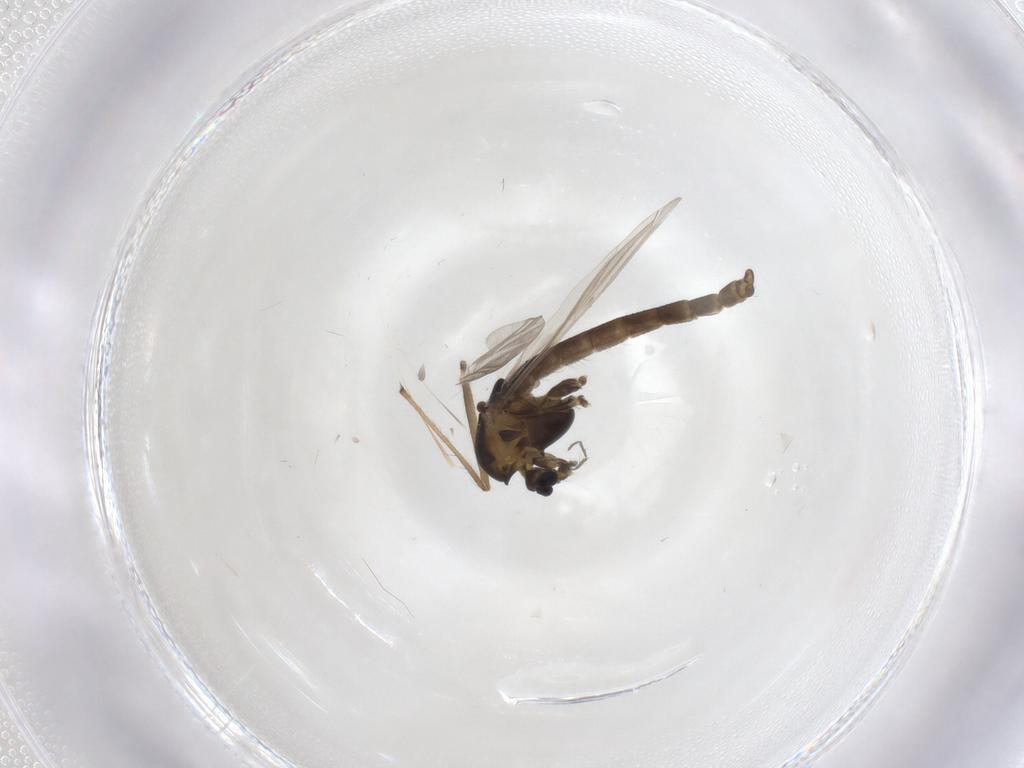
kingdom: Animalia
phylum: Arthropoda
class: Insecta
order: Diptera
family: Chironomidae
